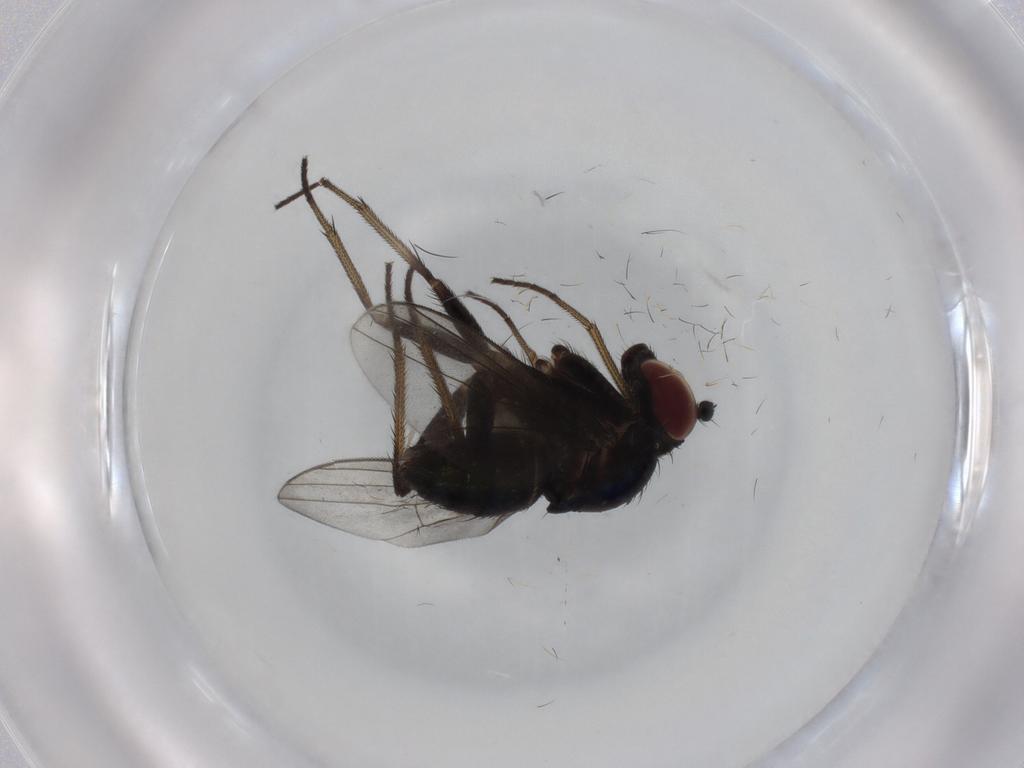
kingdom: Animalia
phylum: Arthropoda
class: Insecta
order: Diptera
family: Dolichopodidae
